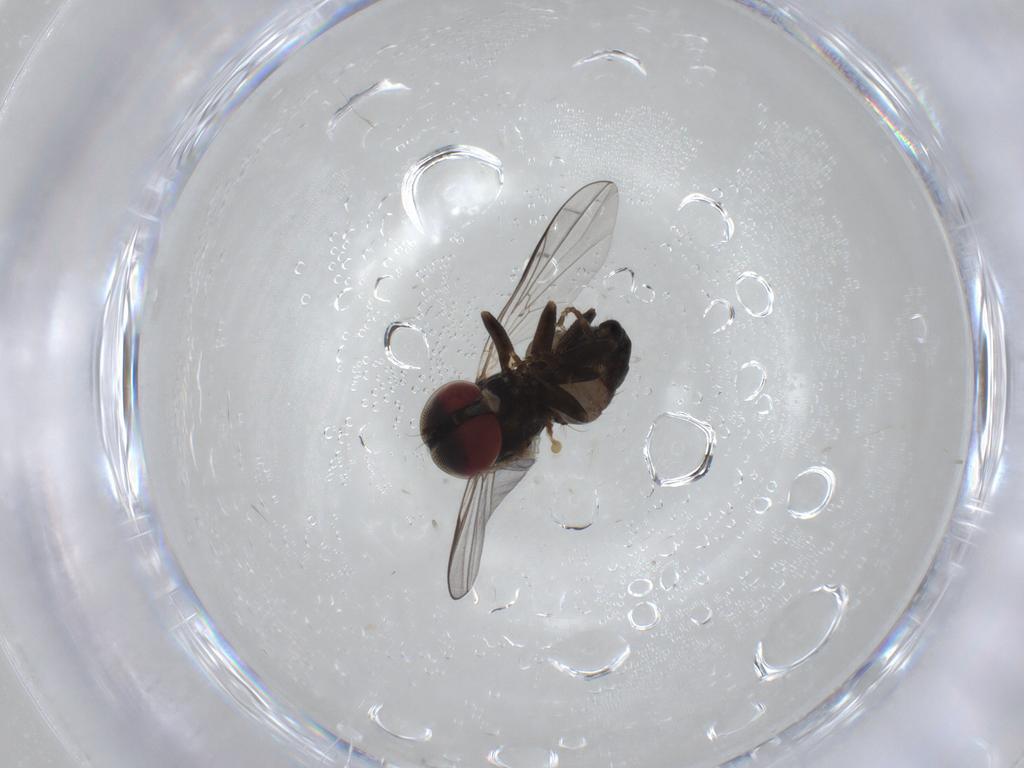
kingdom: Animalia
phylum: Arthropoda
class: Insecta
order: Diptera
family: Pipunculidae
